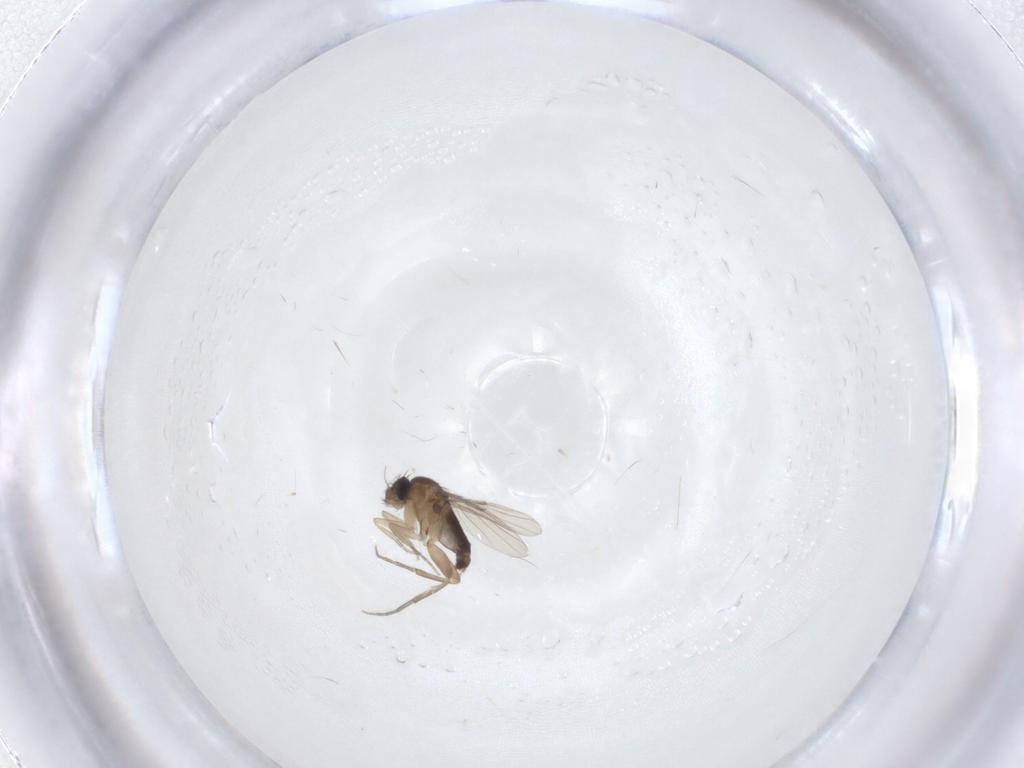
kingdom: Animalia
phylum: Arthropoda
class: Insecta
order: Diptera
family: Phoridae
